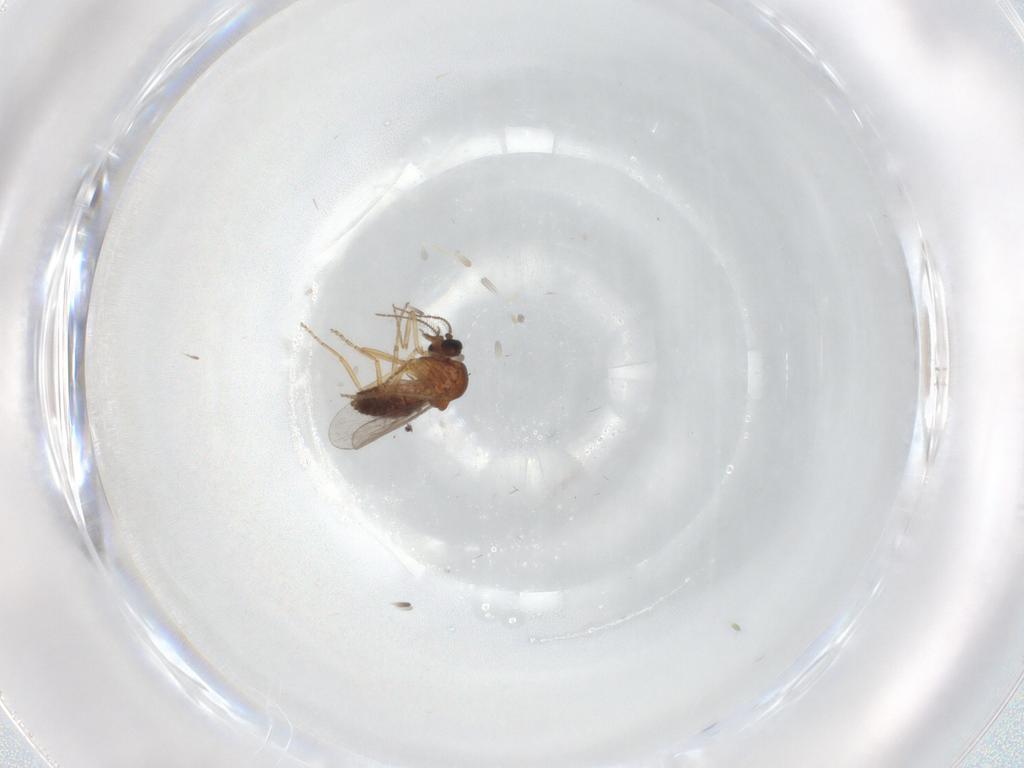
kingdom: Animalia
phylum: Arthropoda
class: Insecta
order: Diptera
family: Ceratopogonidae
